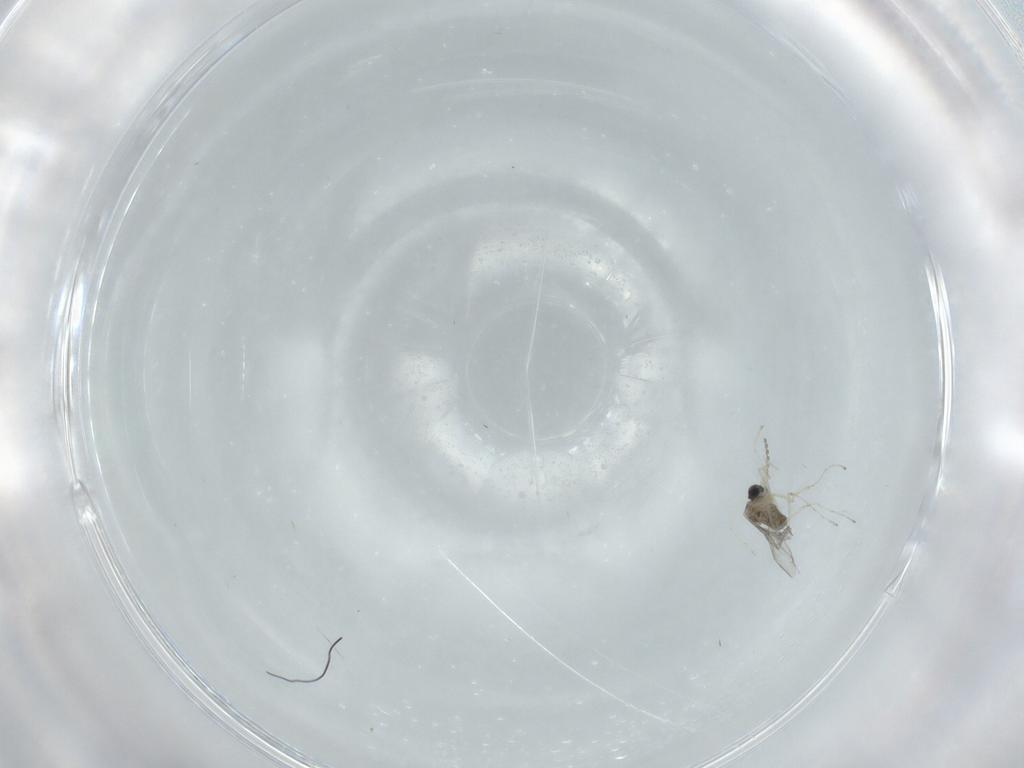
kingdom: Animalia
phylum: Arthropoda
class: Insecta
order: Diptera
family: Cecidomyiidae
